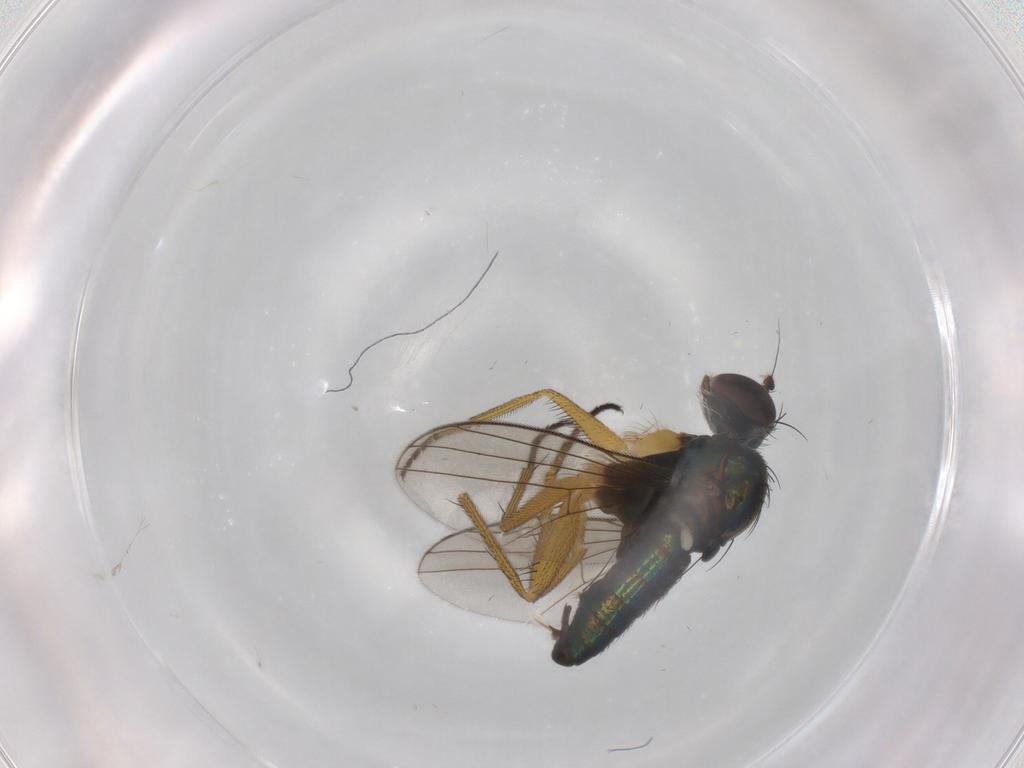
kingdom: Animalia
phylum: Arthropoda
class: Insecta
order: Diptera
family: Dolichopodidae
